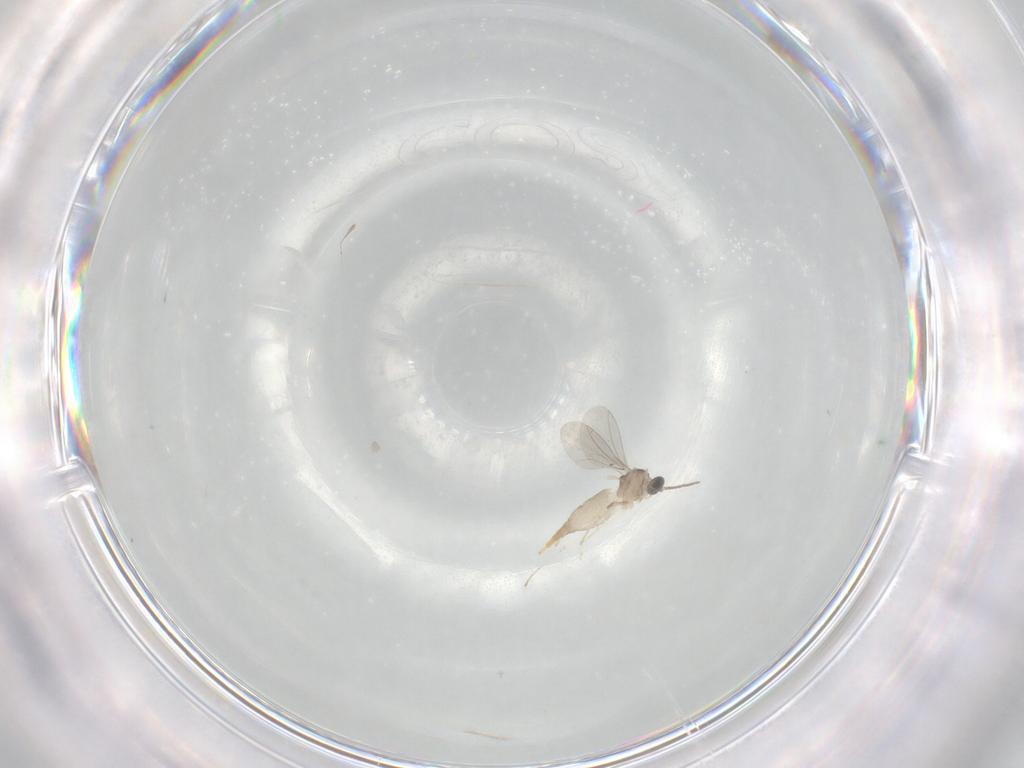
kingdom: Animalia
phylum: Arthropoda
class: Insecta
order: Diptera
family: Cecidomyiidae
